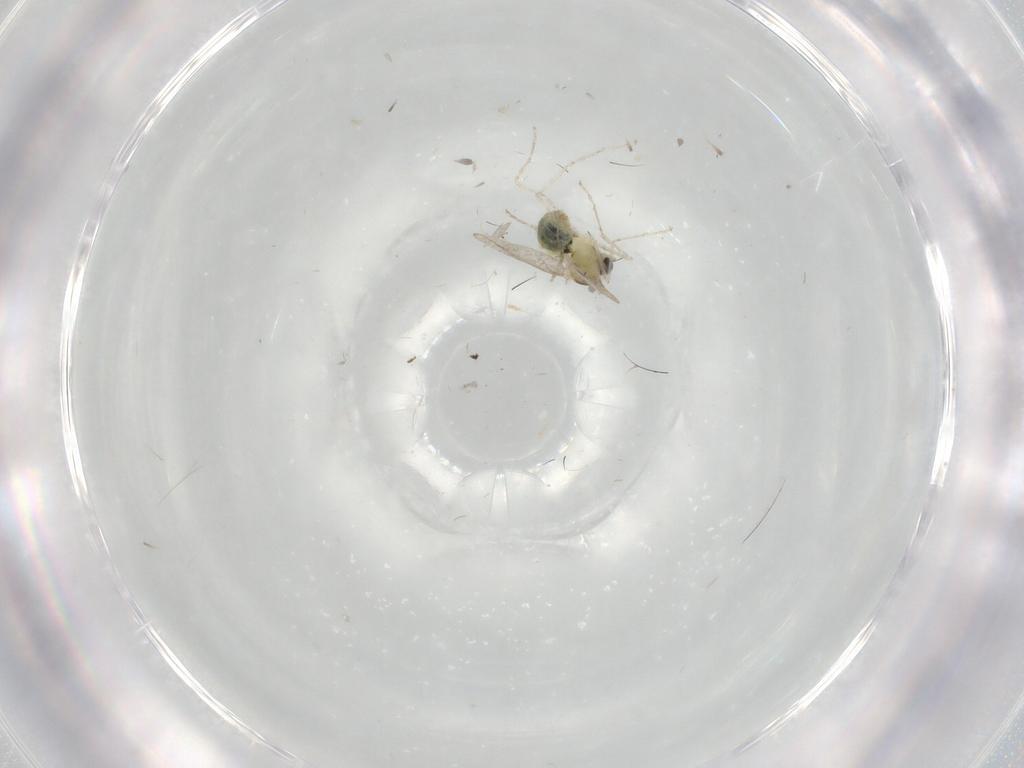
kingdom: Animalia
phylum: Arthropoda
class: Insecta
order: Diptera
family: Cecidomyiidae
